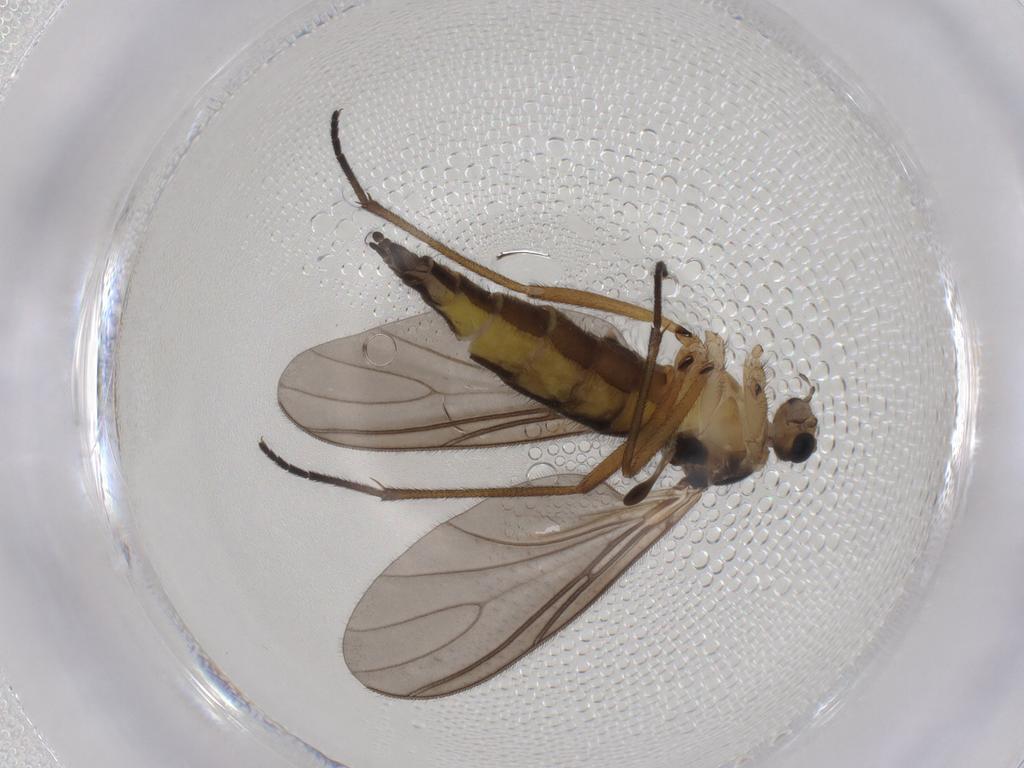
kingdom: Animalia
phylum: Arthropoda
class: Insecta
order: Diptera
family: Sciaridae
